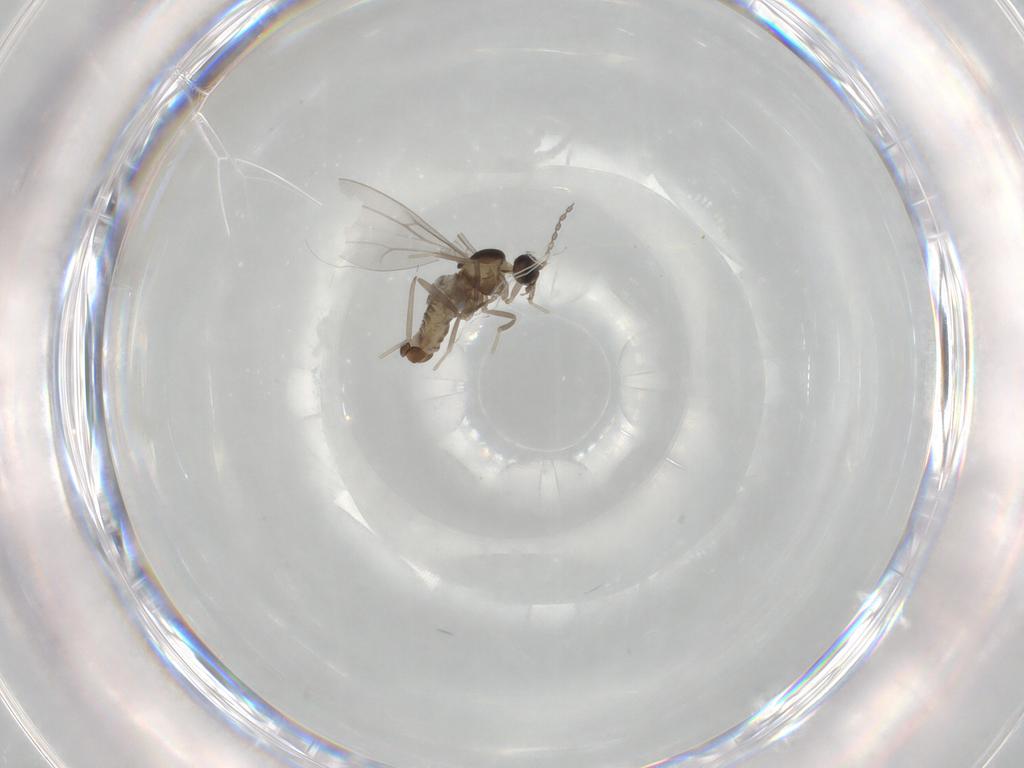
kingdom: Animalia
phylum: Arthropoda
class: Insecta
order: Diptera
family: Cecidomyiidae
